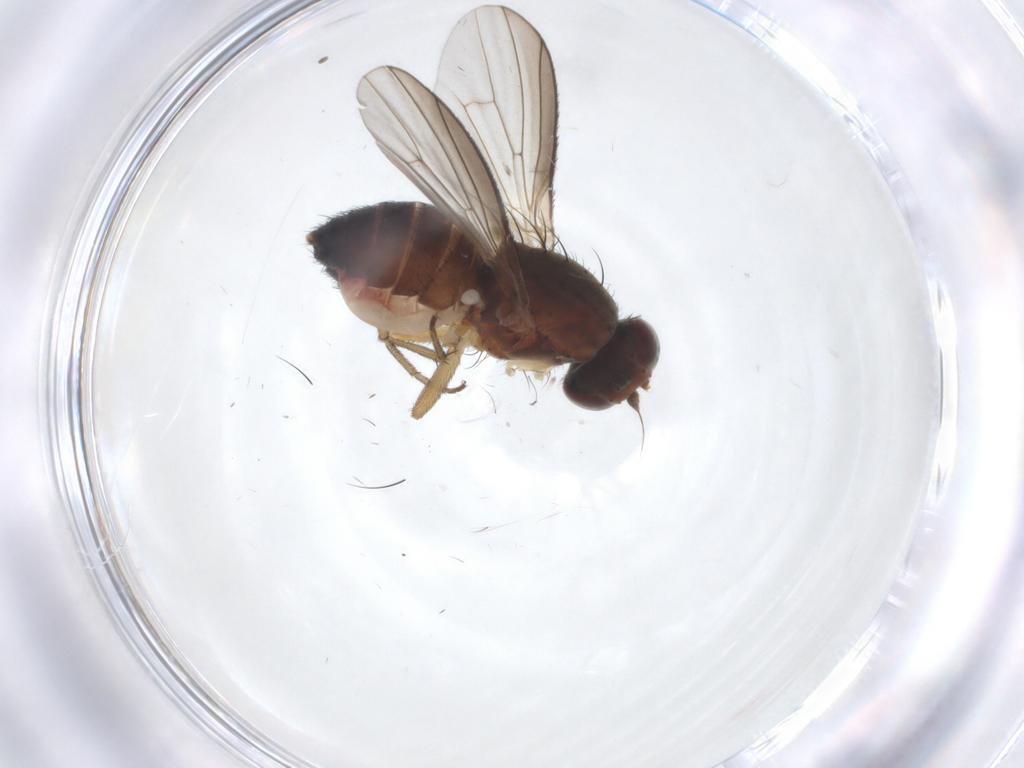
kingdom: Animalia
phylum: Arthropoda
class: Insecta
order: Diptera
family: Heleomyzidae
